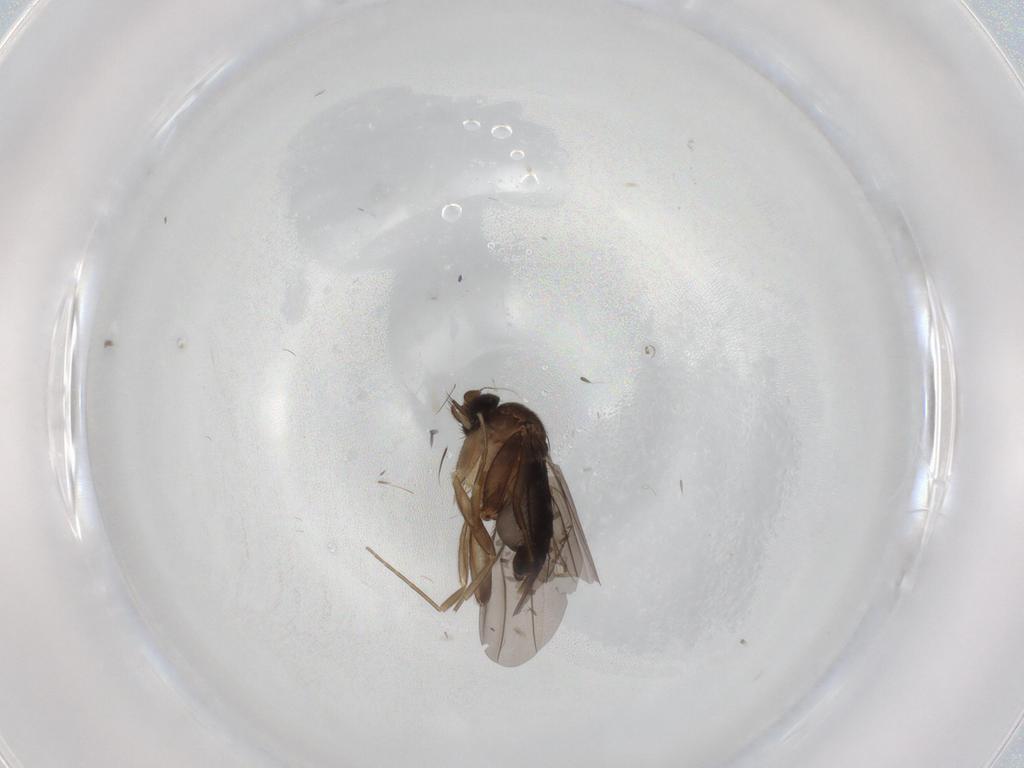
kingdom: Animalia
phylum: Arthropoda
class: Insecta
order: Diptera
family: Phoridae
